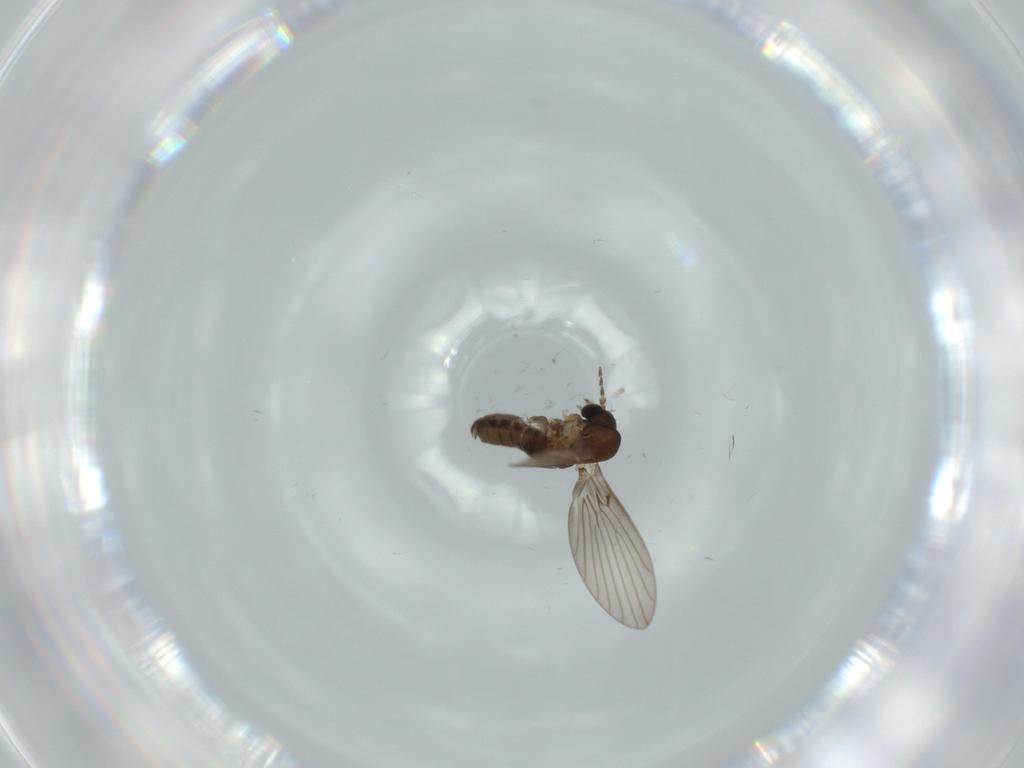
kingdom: Animalia
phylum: Arthropoda
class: Insecta
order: Diptera
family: Psychodidae
